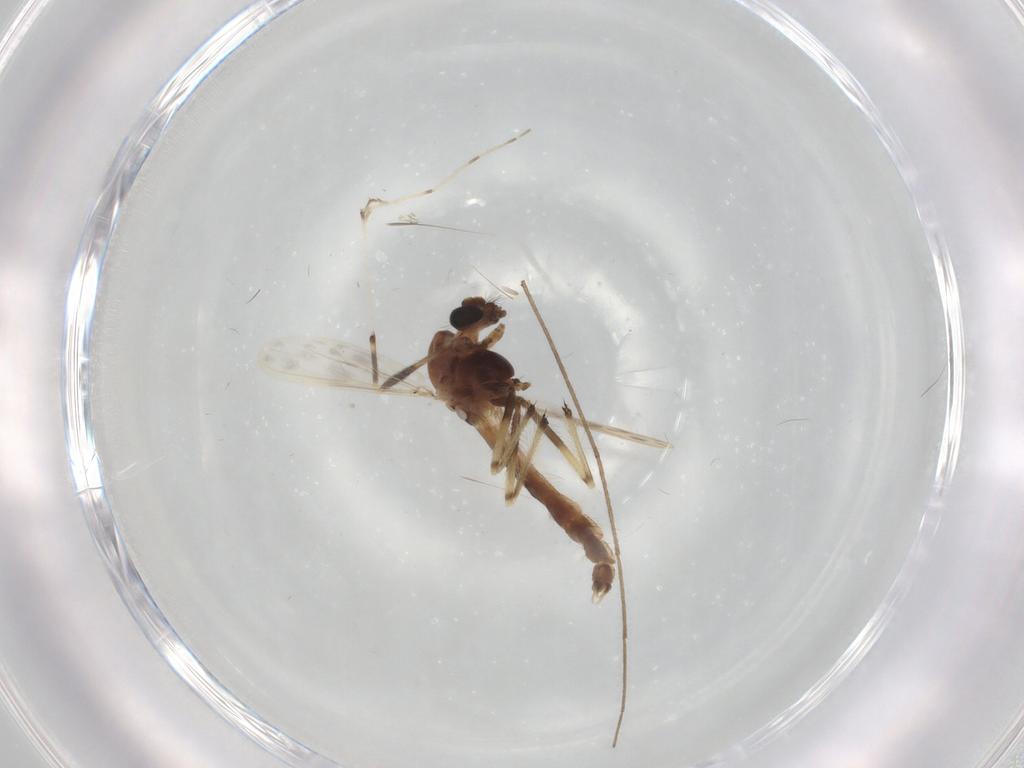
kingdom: Animalia
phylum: Arthropoda
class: Insecta
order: Diptera
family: Chironomidae
